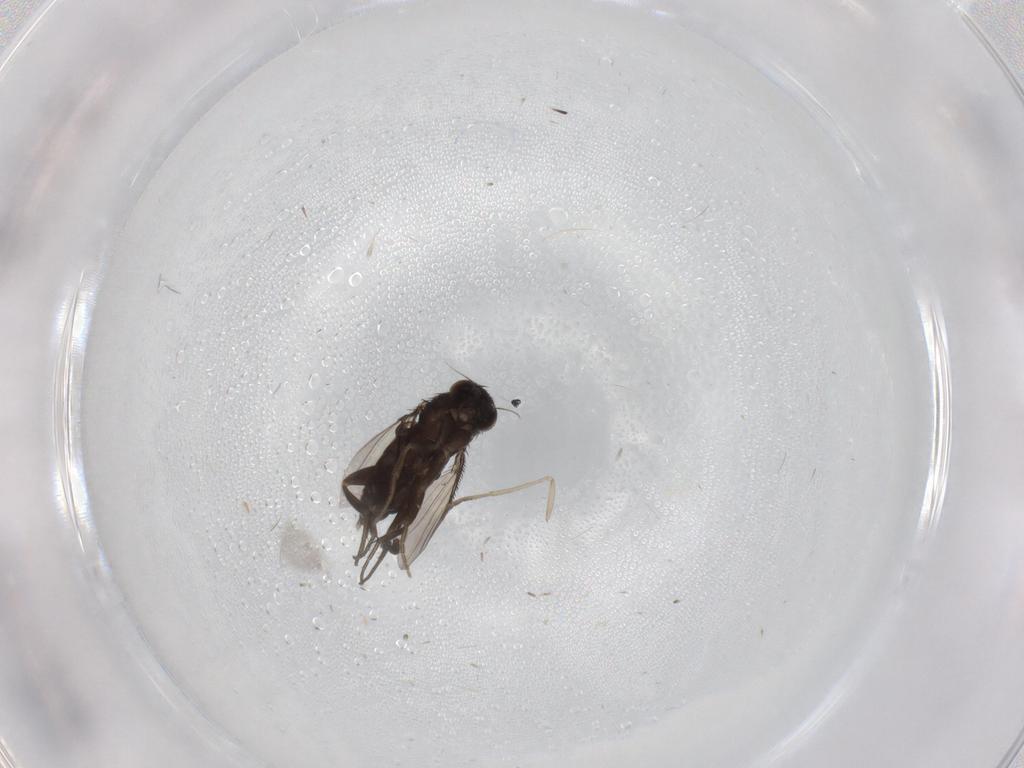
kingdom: Animalia
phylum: Arthropoda
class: Insecta
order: Diptera
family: Phoridae
